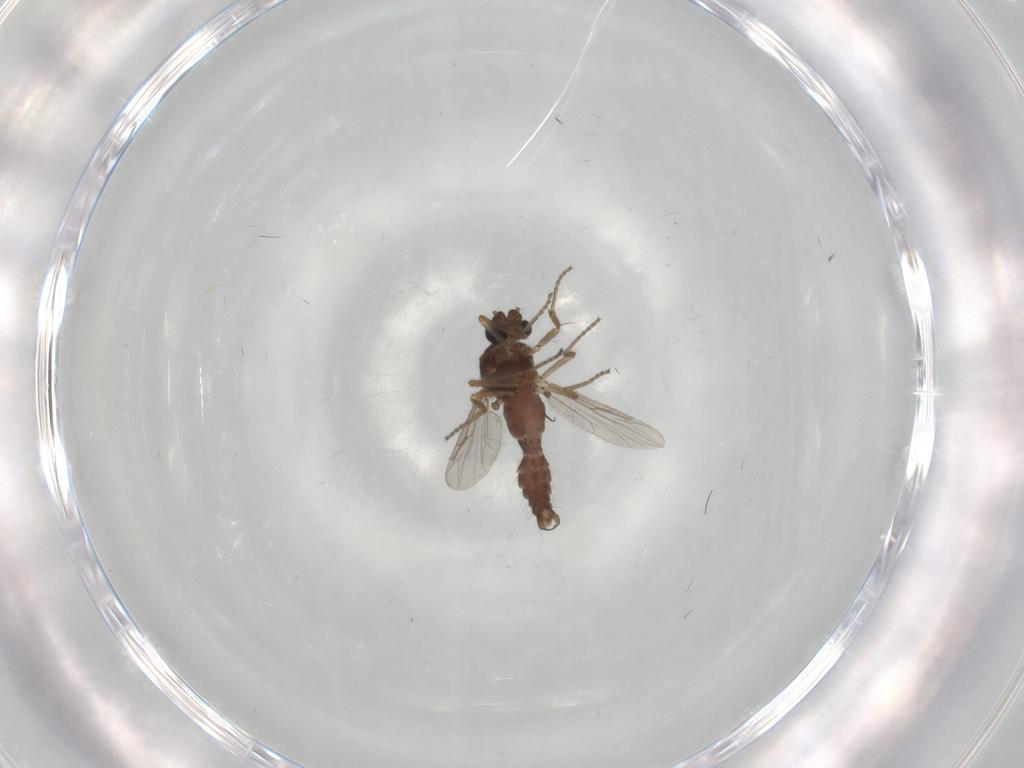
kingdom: Animalia
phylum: Arthropoda
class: Insecta
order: Diptera
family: Ceratopogonidae
